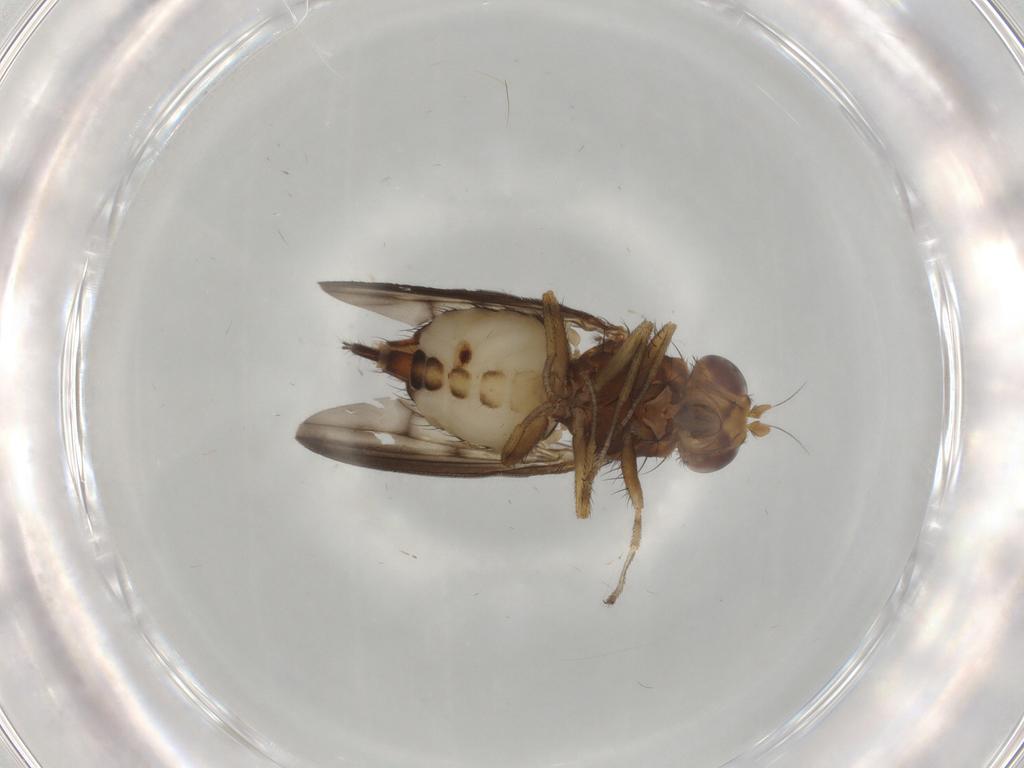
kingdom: Animalia
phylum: Arthropoda
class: Insecta
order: Diptera
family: Lauxaniidae
